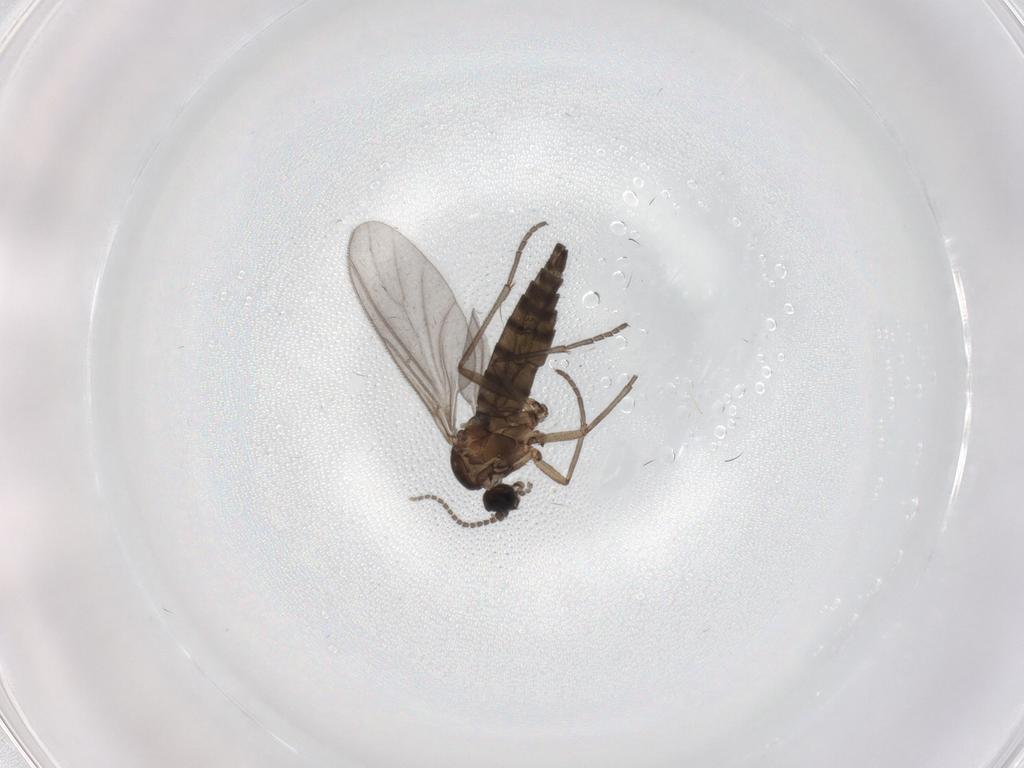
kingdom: Animalia
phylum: Arthropoda
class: Insecta
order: Diptera
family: Sciaridae
